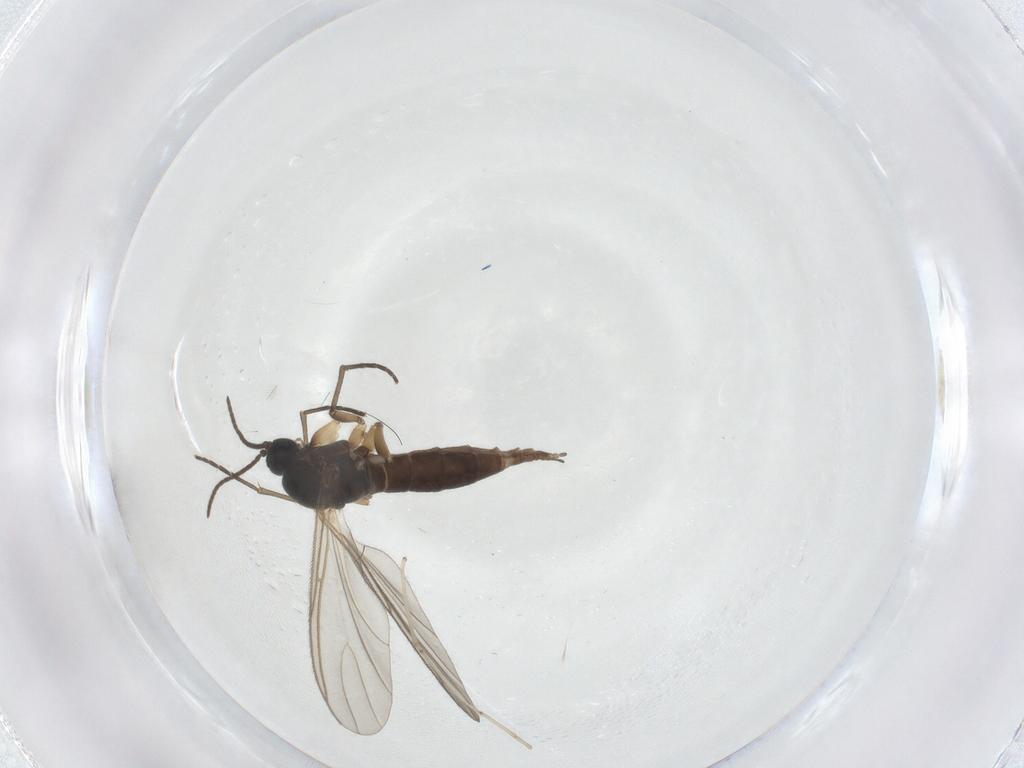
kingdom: Animalia
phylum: Arthropoda
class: Insecta
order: Diptera
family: Sciaridae
